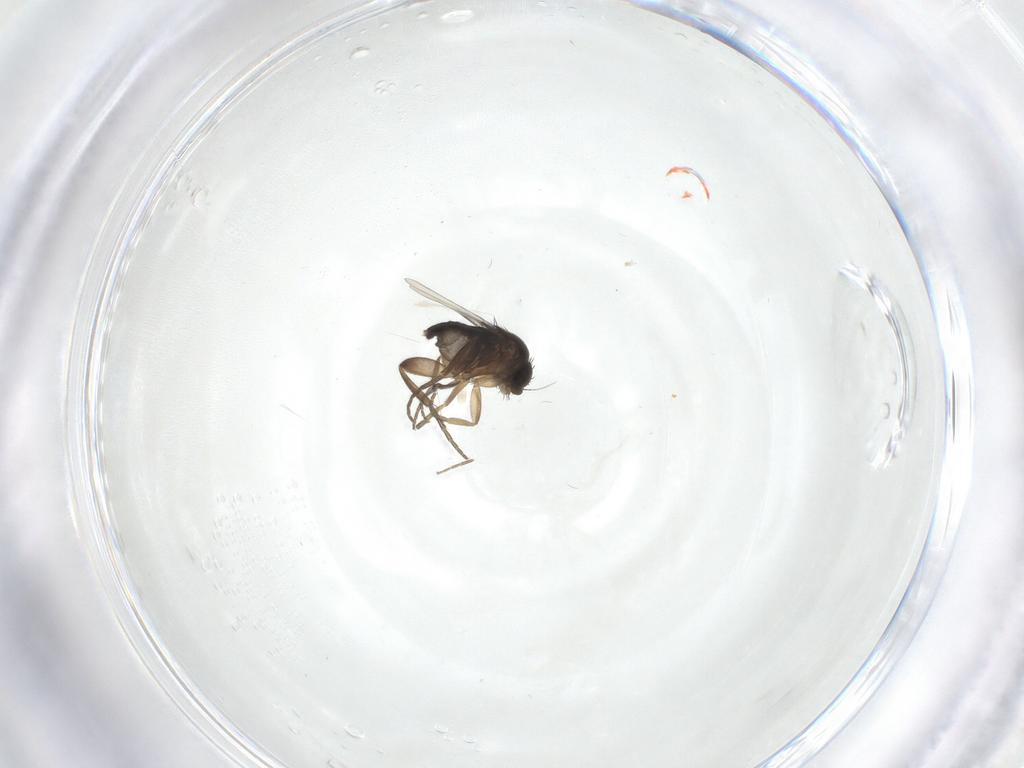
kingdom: Animalia
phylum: Arthropoda
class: Insecta
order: Diptera
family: Phoridae
